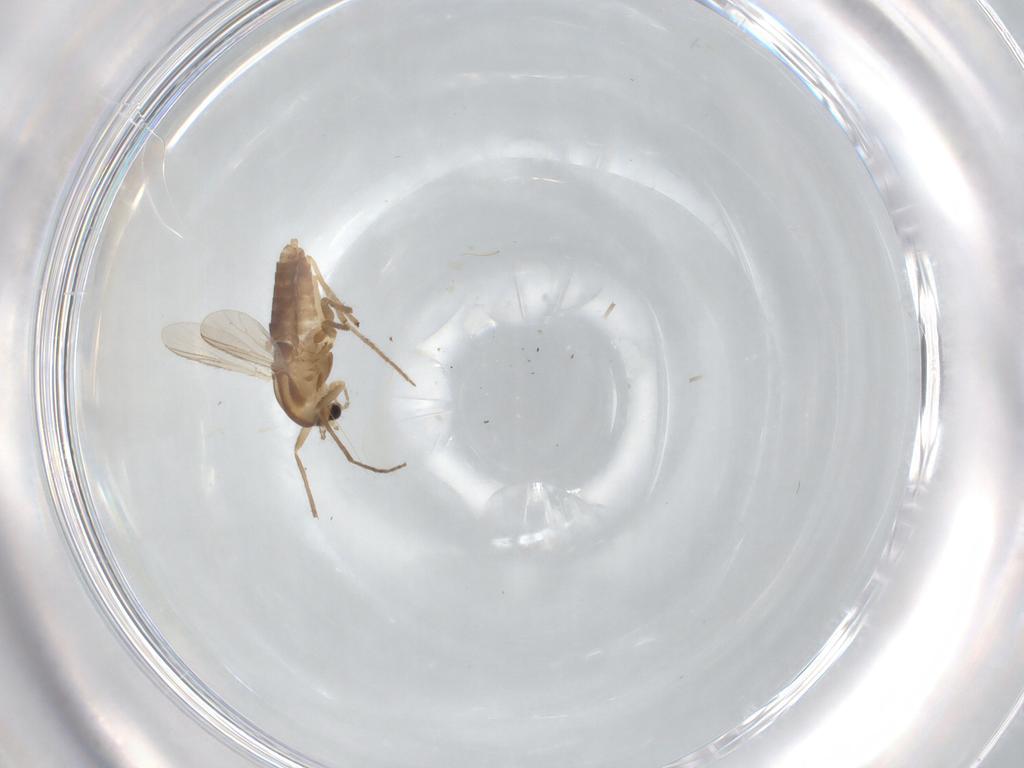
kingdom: Animalia
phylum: Arthropoda
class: Insecta
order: Diptera
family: Chironomidae
